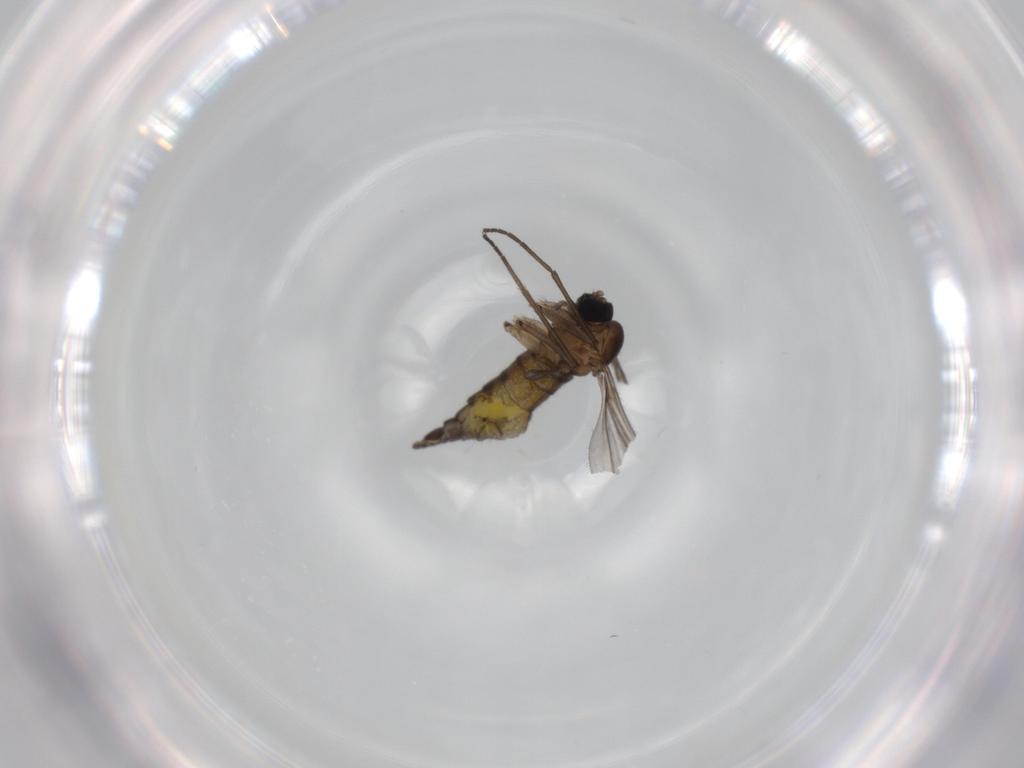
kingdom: Animalia
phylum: Arthropoda
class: Insecta
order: Diptera
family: Sciaridae
